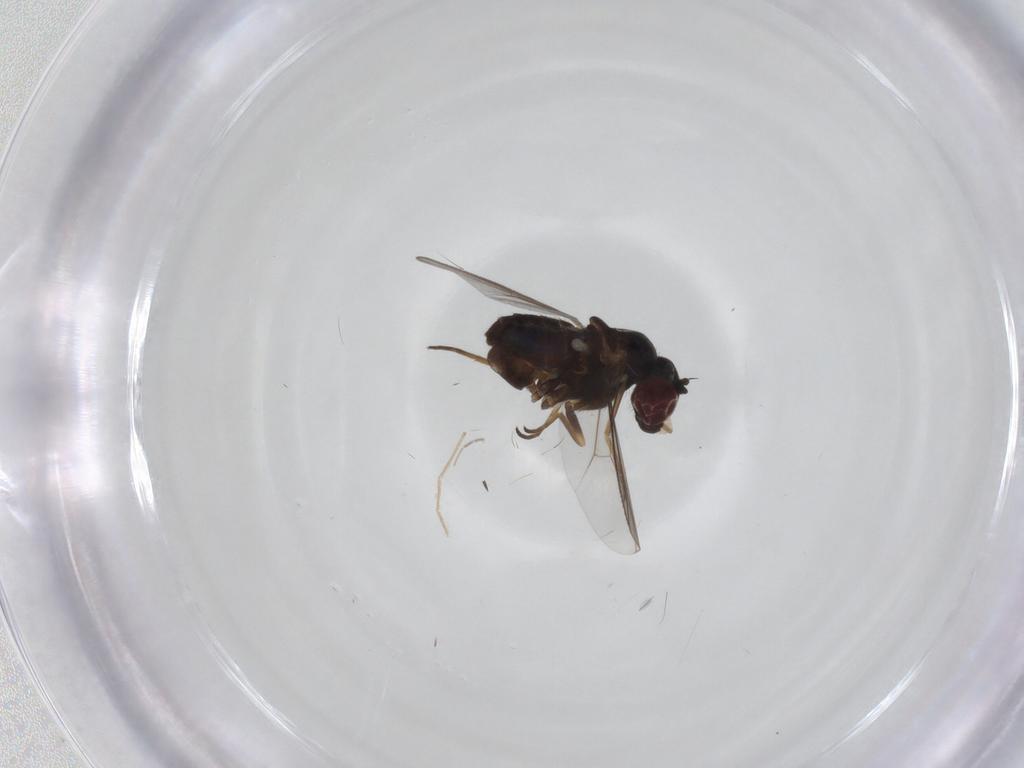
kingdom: Animalia
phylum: Arthropoda
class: Insecta
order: Diptera
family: Dolichopodidae
